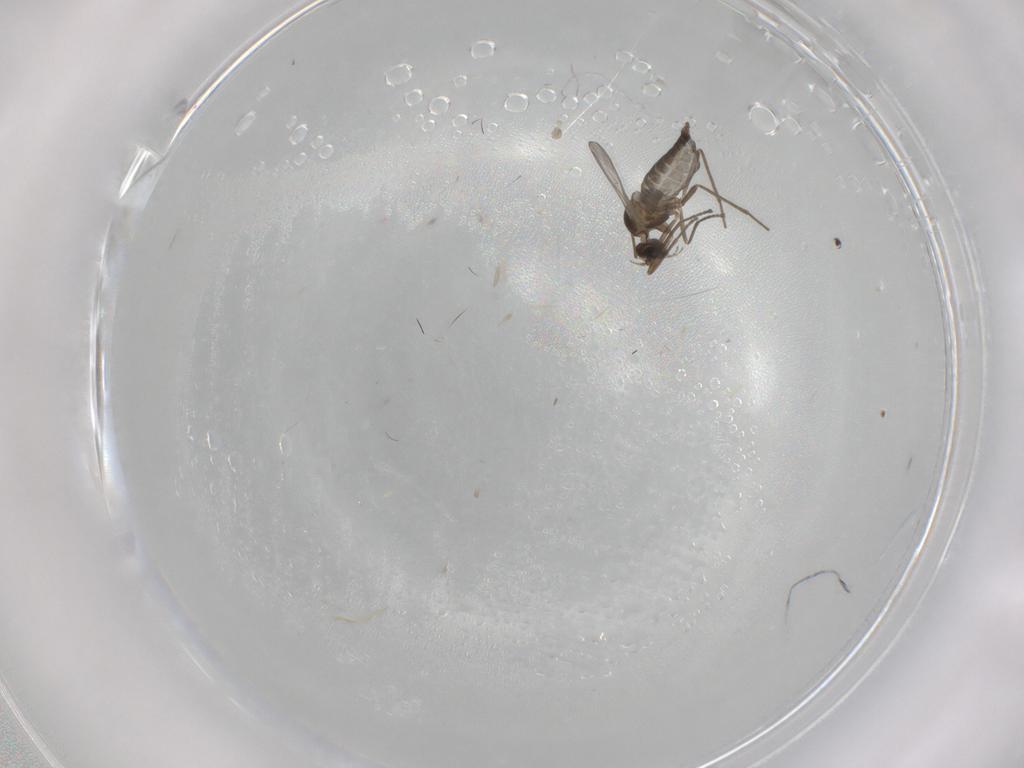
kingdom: Animalia
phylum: Arthropoda
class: Insecta
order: Diptera
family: Cecidomyiidae
